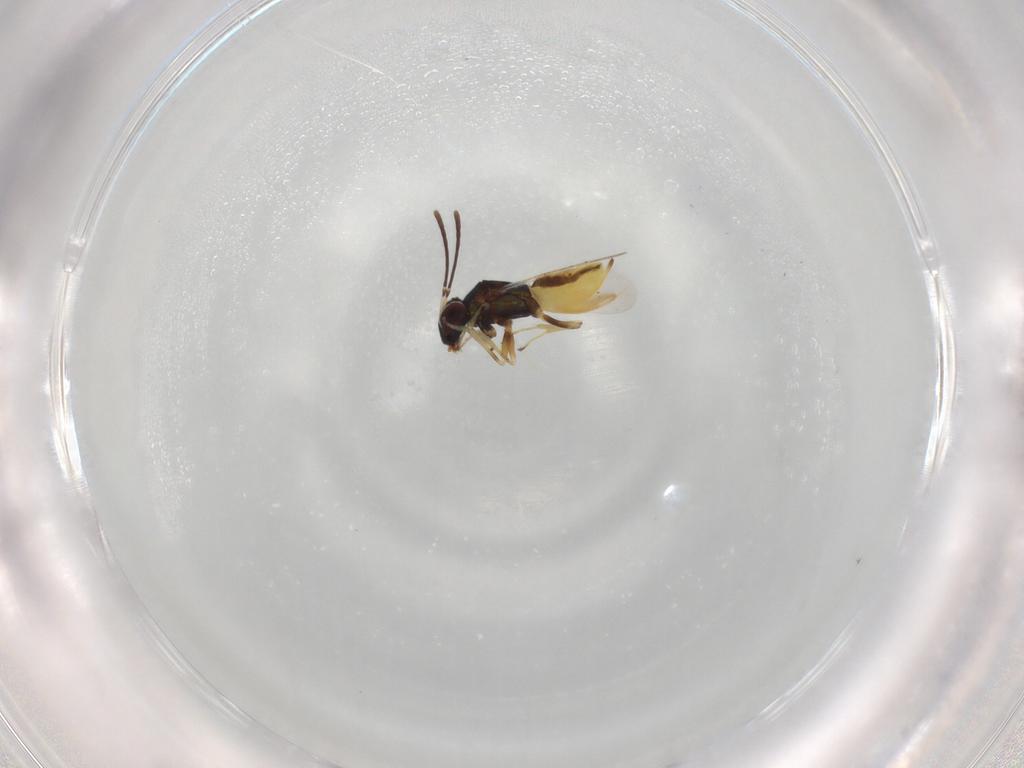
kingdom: Animalia
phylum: Arthropoda
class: Insecta
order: Hymenoptera
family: Encyrtidae
